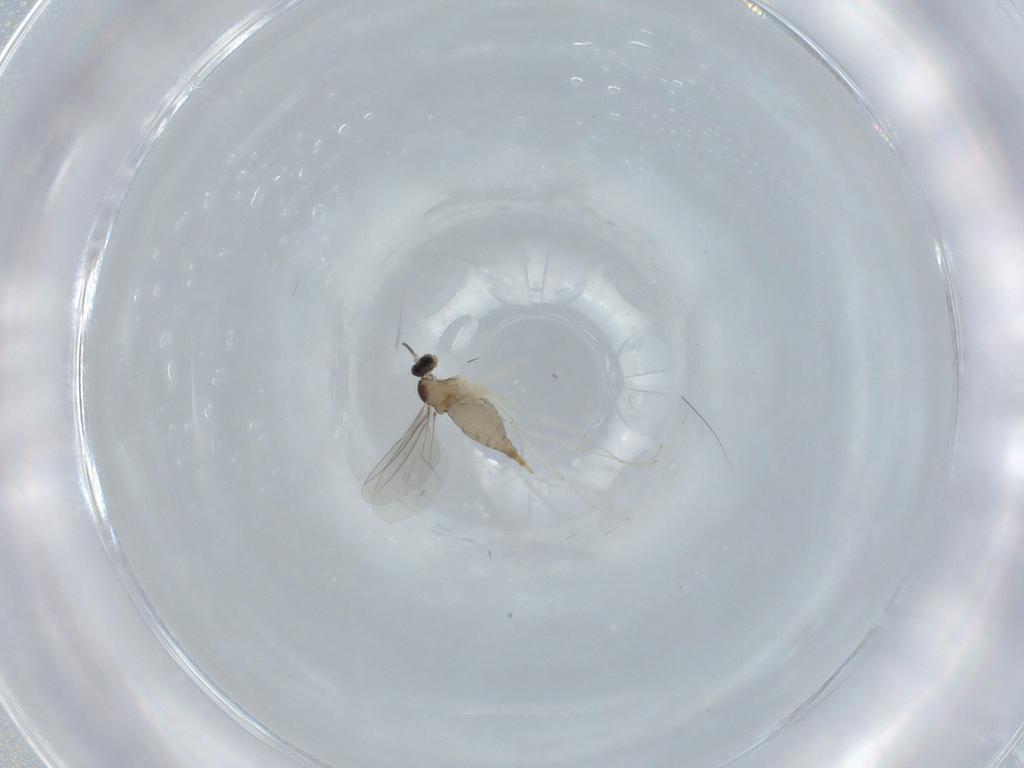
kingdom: Animalia
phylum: Arthropoda
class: Insecta
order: Diptera
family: Cecidomyiidae
